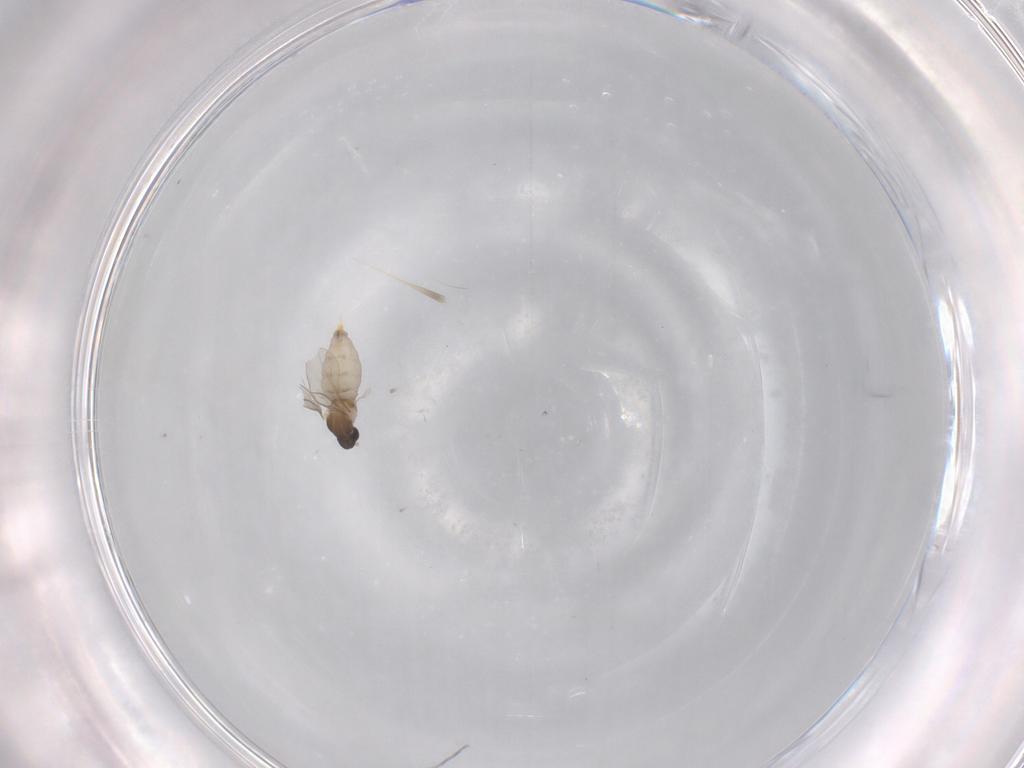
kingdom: Animalia
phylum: Arthropoda
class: Insecta
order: Diptera
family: Cecidomyiidae
